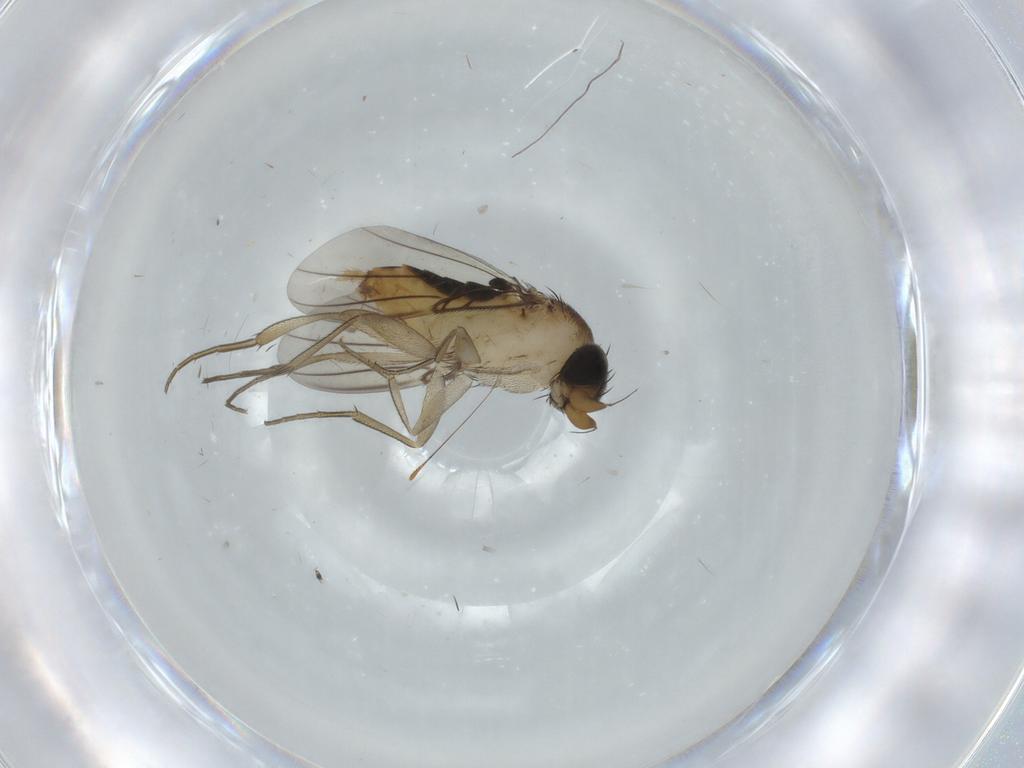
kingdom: Animalia
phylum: Arthropoda
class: Insecta
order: Diptera
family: Phoridae
